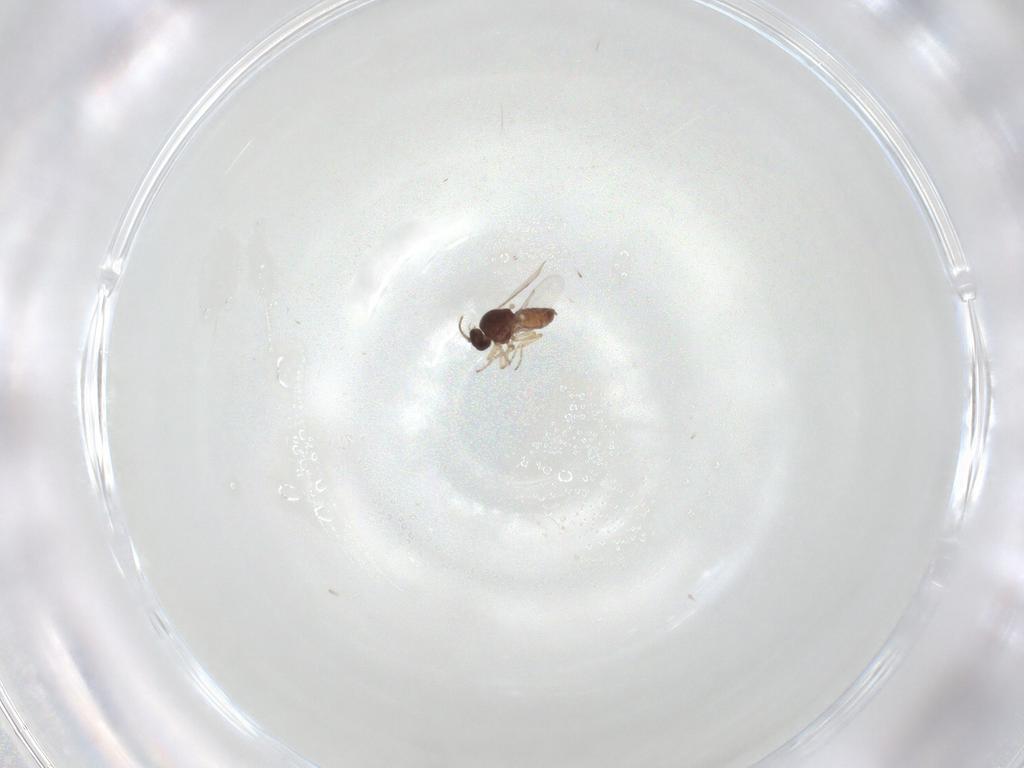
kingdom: Animalia
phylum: Arthropoda
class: Insecta
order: Diptera
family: Ceratopogonidae
